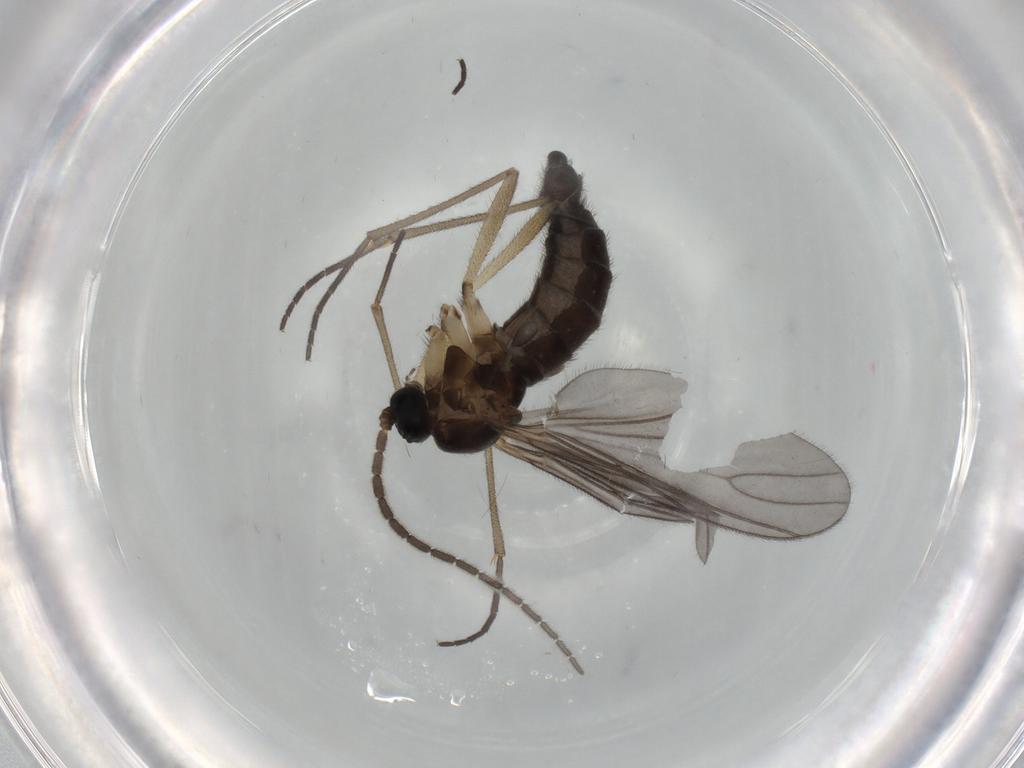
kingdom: Animalia
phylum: Arthropoda
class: Insecta
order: Diptera
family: Sciaridae
